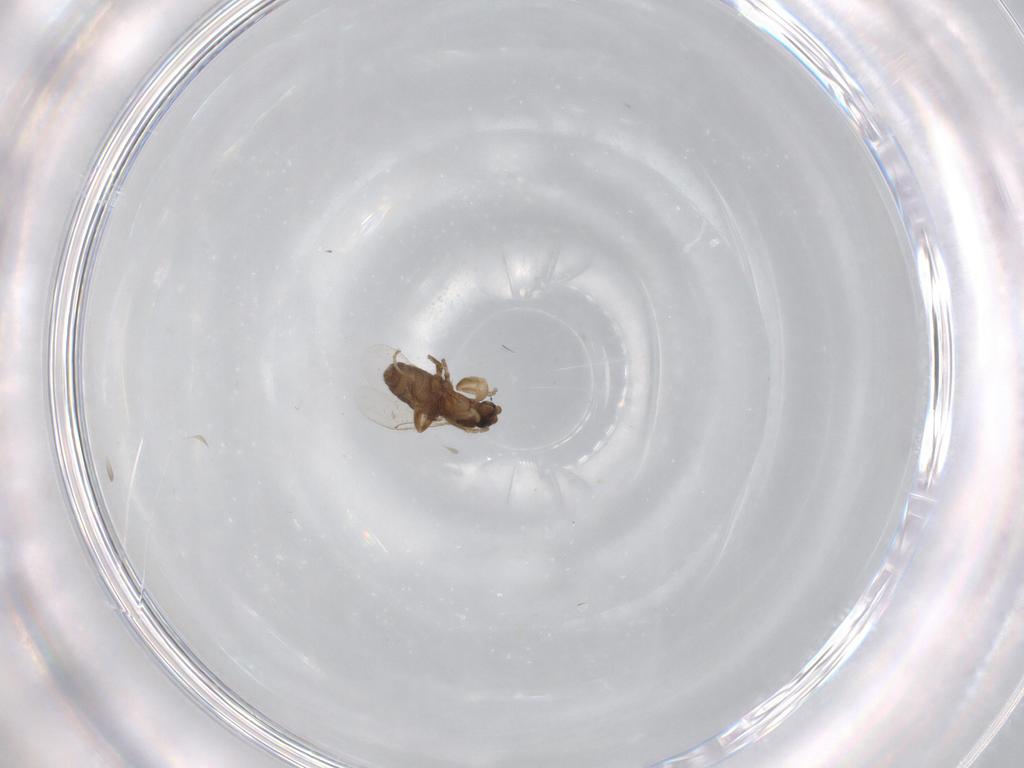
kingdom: Animalia
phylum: Arthropoda
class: Insecta
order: Diptera
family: Phoridae
